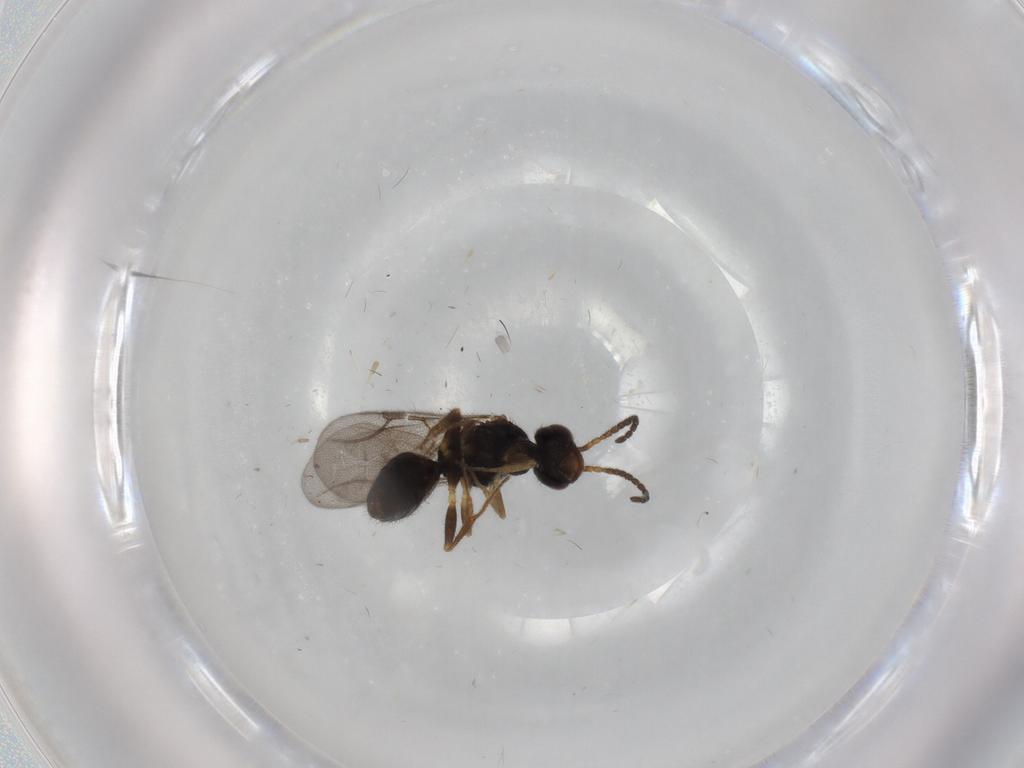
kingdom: Animalia
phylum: Arthropoda
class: Insecta
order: Hymenoptera
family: Bethylidae
